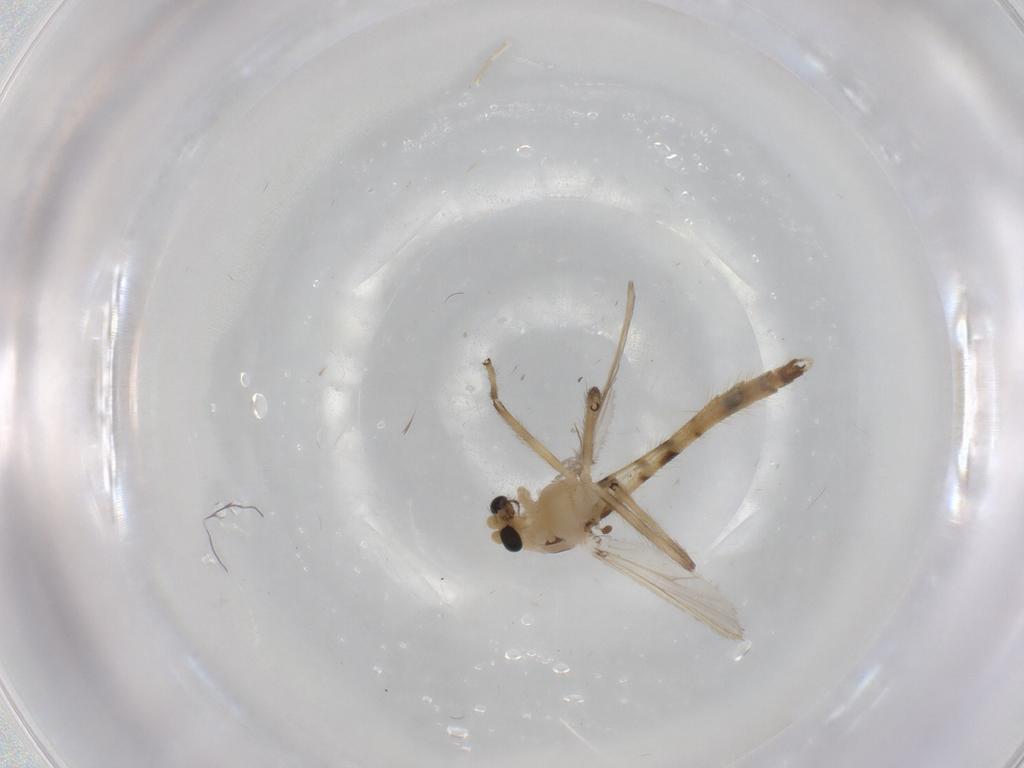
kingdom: Animalia
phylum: Arthropoda
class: Insecta
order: Diptera
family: Chironomidae
